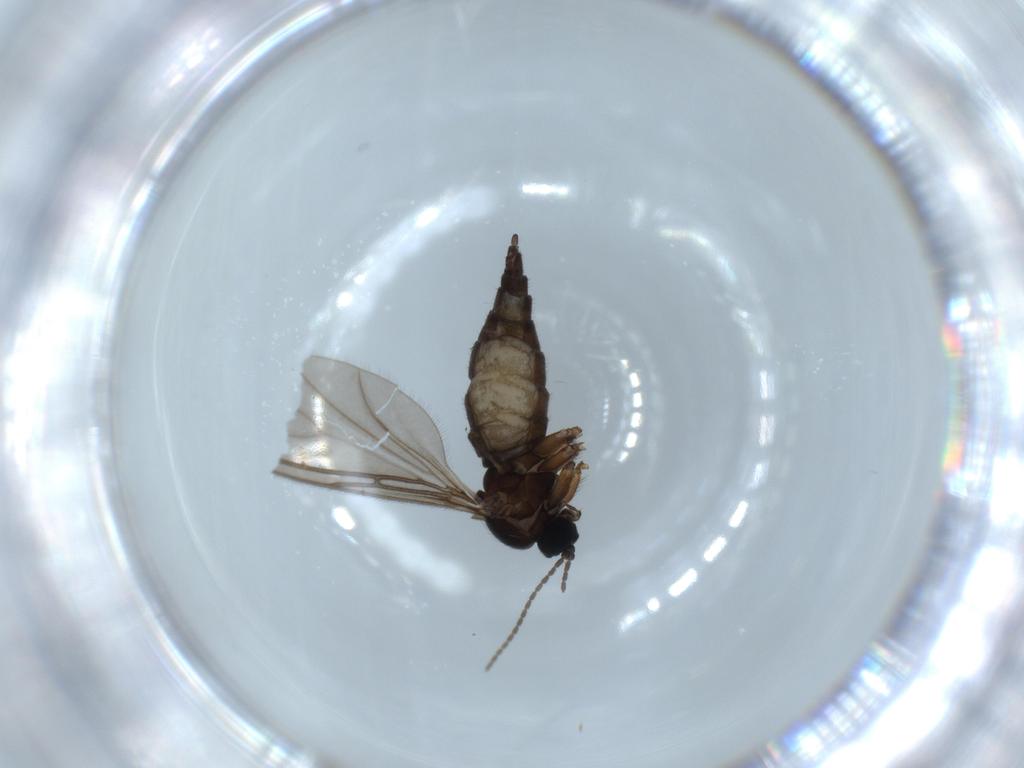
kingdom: Animalia
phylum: Arthropoda
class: Insecta
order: Diptera
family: Sciaridae
